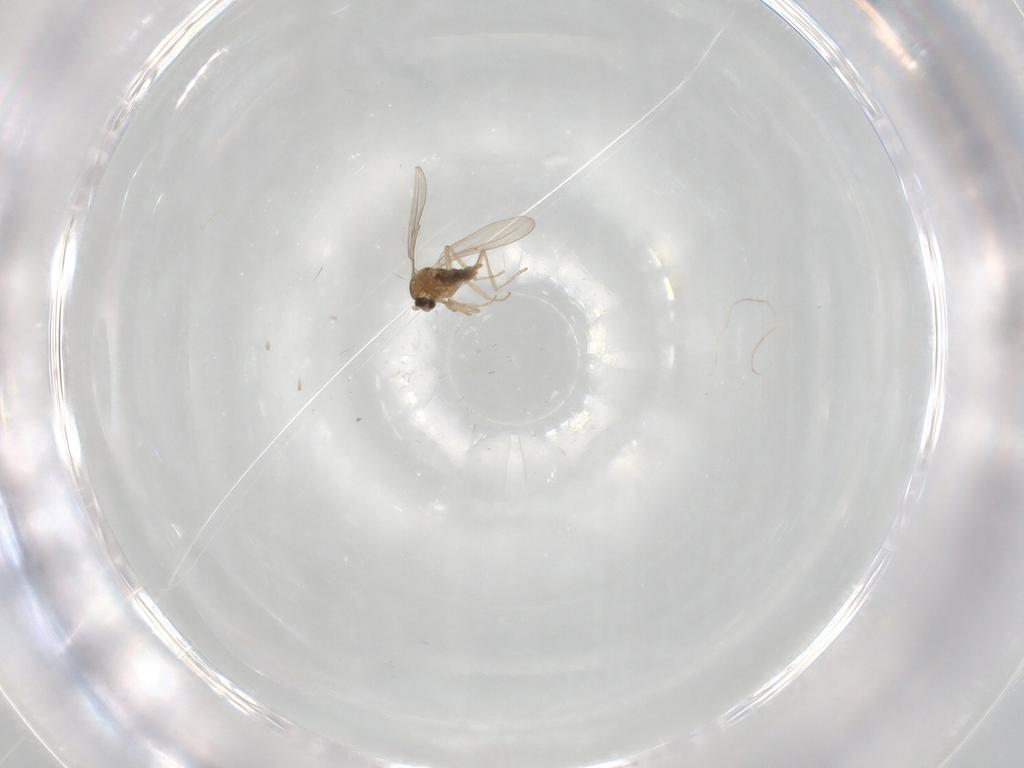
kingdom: Animalia
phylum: Arthropoda
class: Insecta
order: Diptera
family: Cecidomyiidae
